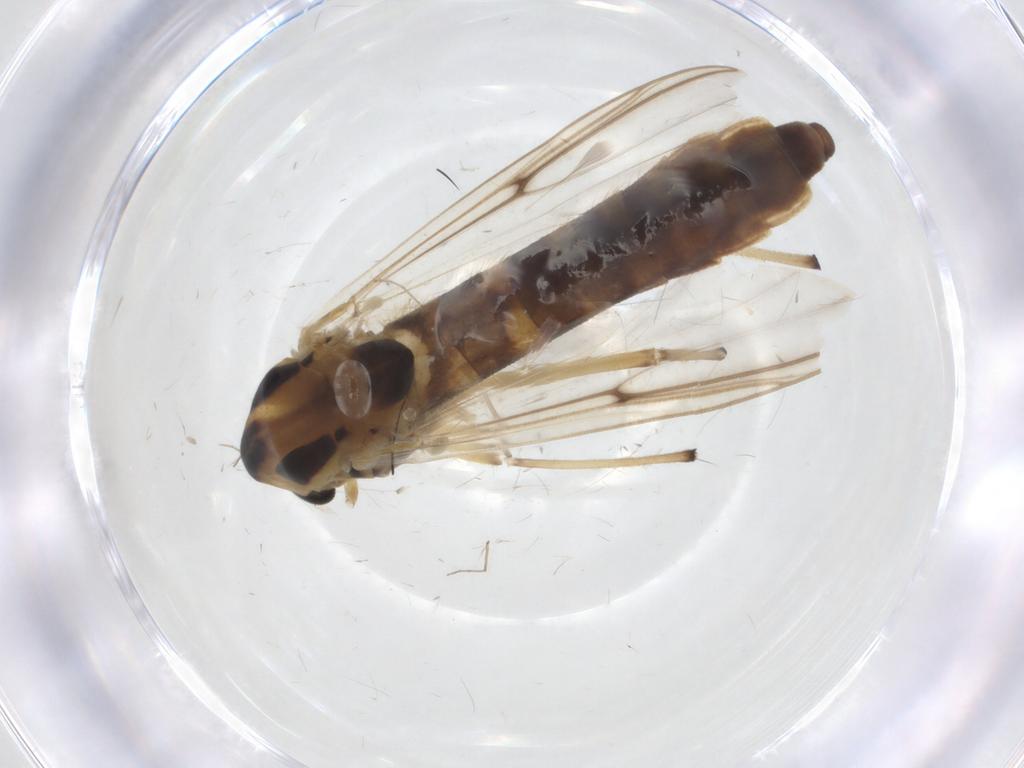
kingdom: Animalia
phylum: Arthropoda
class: Insecta
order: Diptera
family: Chironomidae
